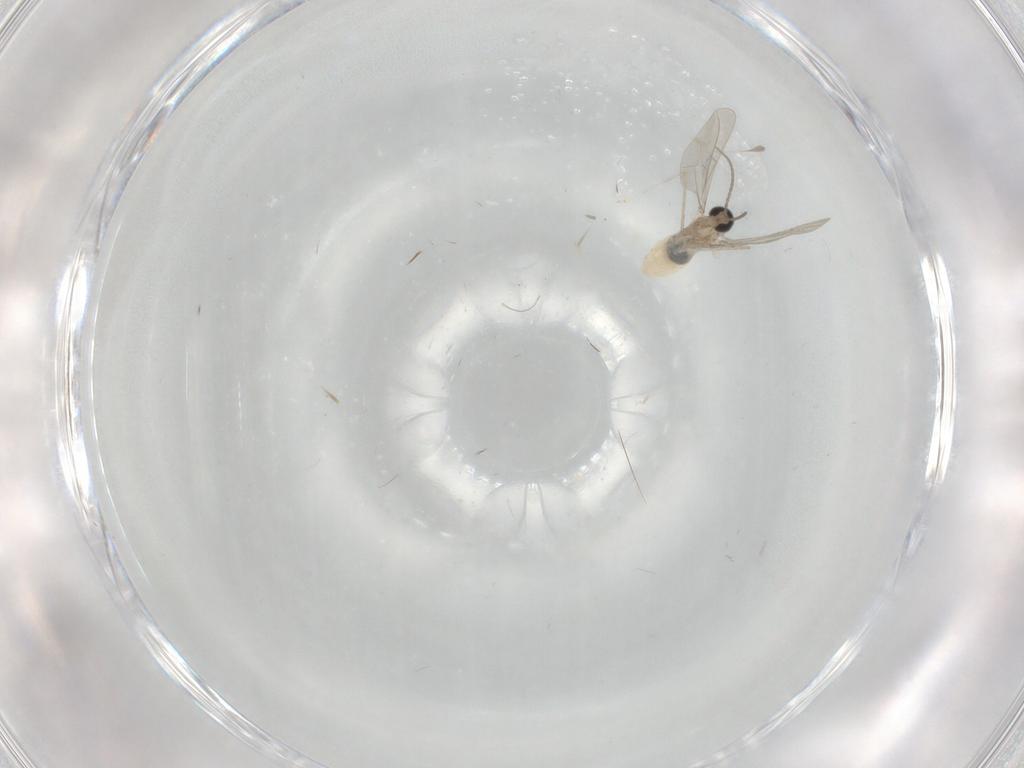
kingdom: Animalia
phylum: Arthropoda
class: Insecta
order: Diptera
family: Cecidomyiidae
